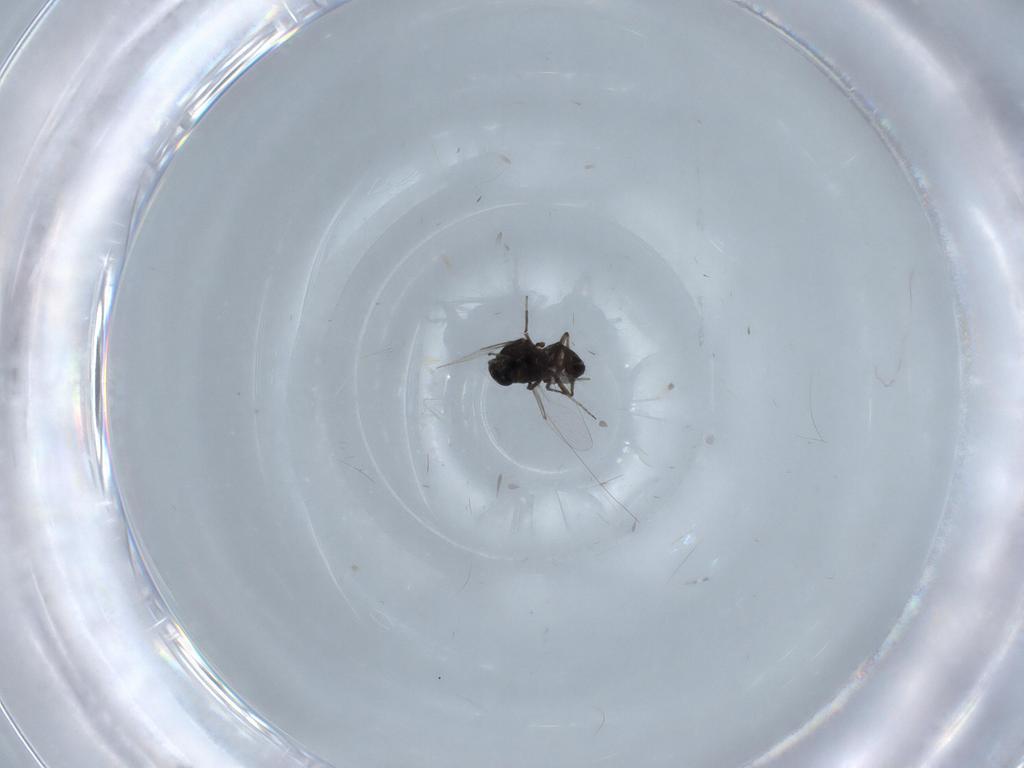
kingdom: Animalia
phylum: Arthropoda
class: Insecta
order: Diptera
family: Ceratopogonidae
